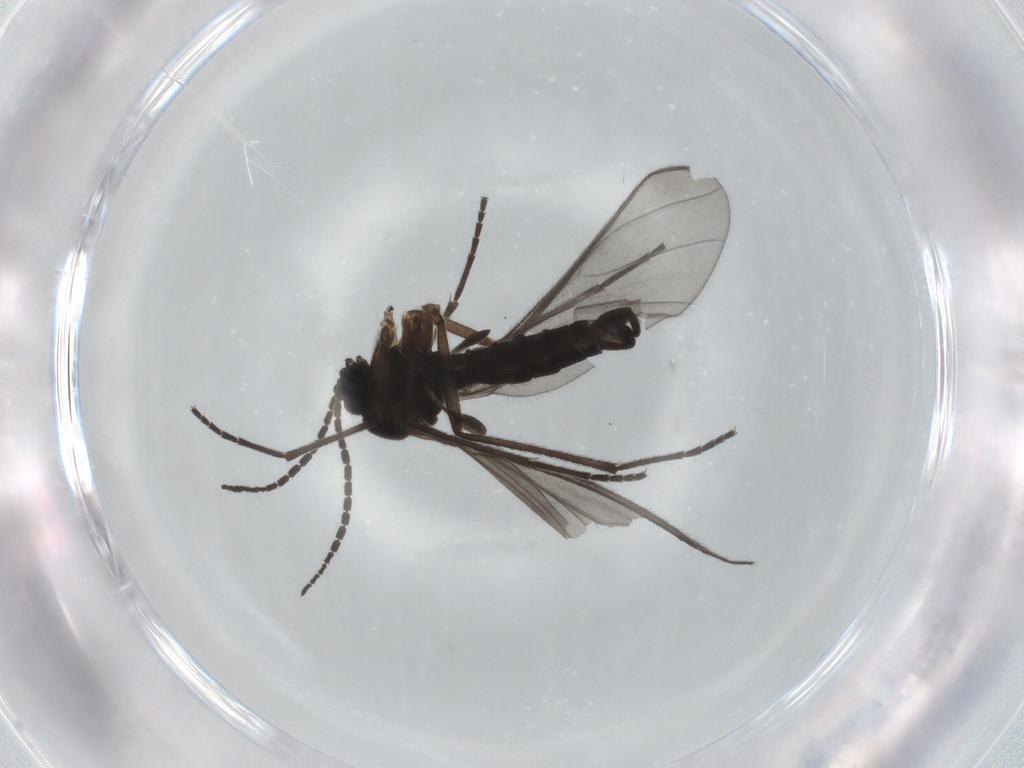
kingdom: Animalia
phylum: Arthropoda
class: Insecta
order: Diptera
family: Sciaridae
